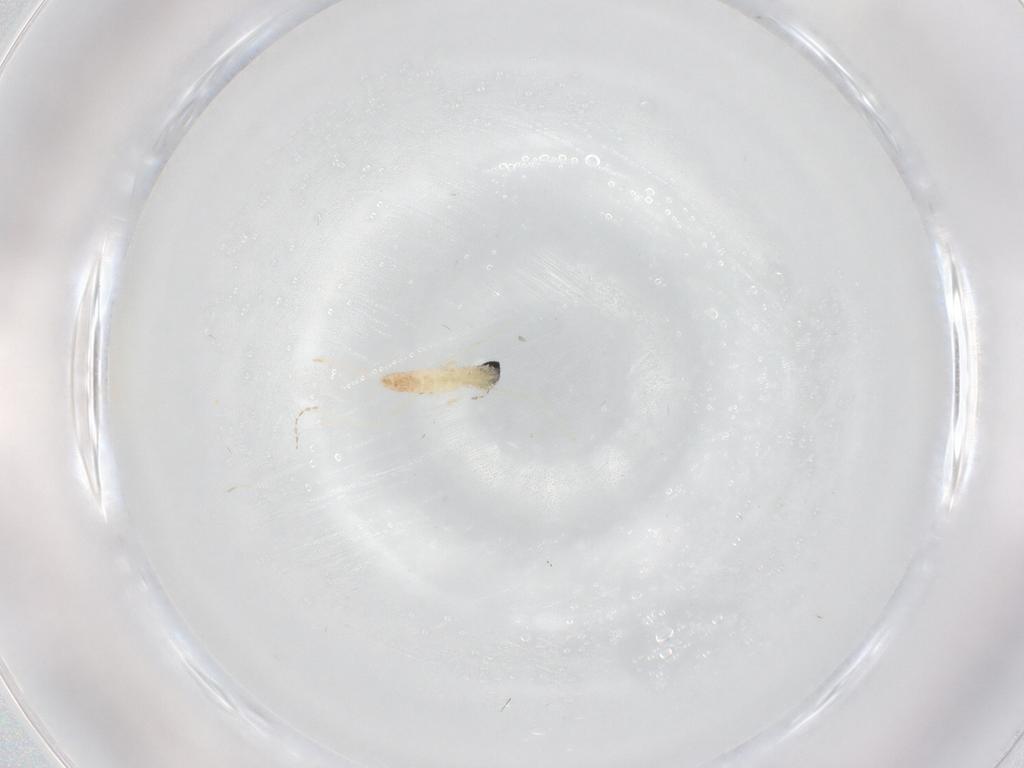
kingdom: Animalia
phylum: Arthropoda
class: Insecta
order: Diptera
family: Cecidomyiidae
